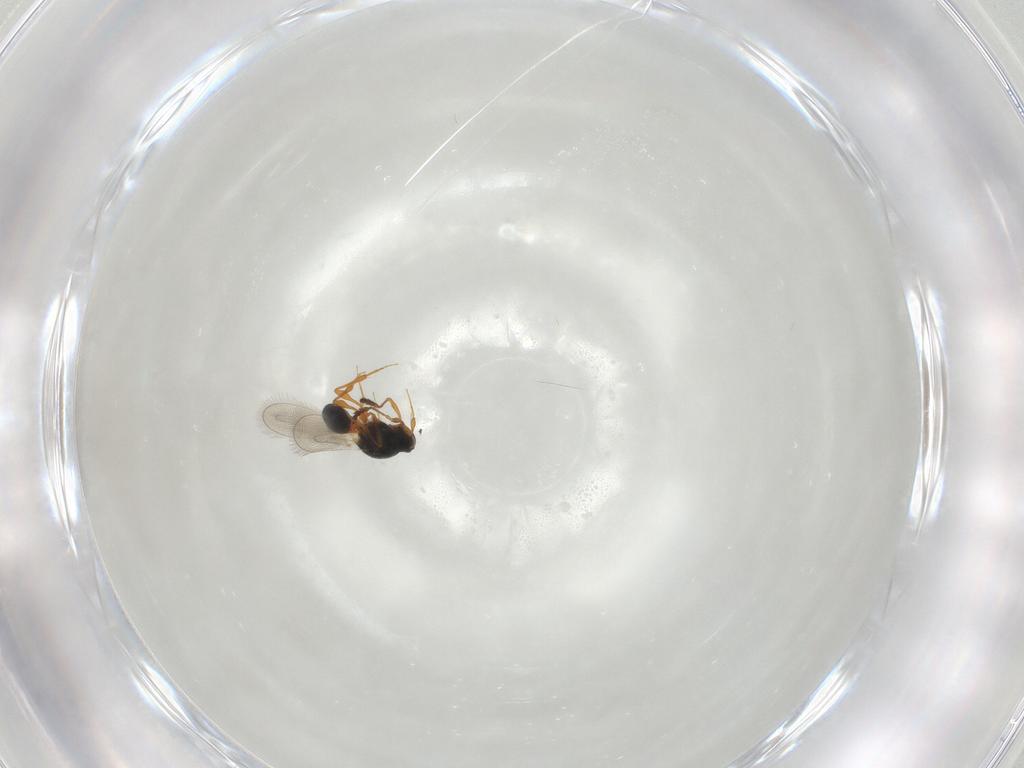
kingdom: Animalia
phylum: Arthropoda
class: Insecta
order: Hymenoptera
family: Platygastridae
